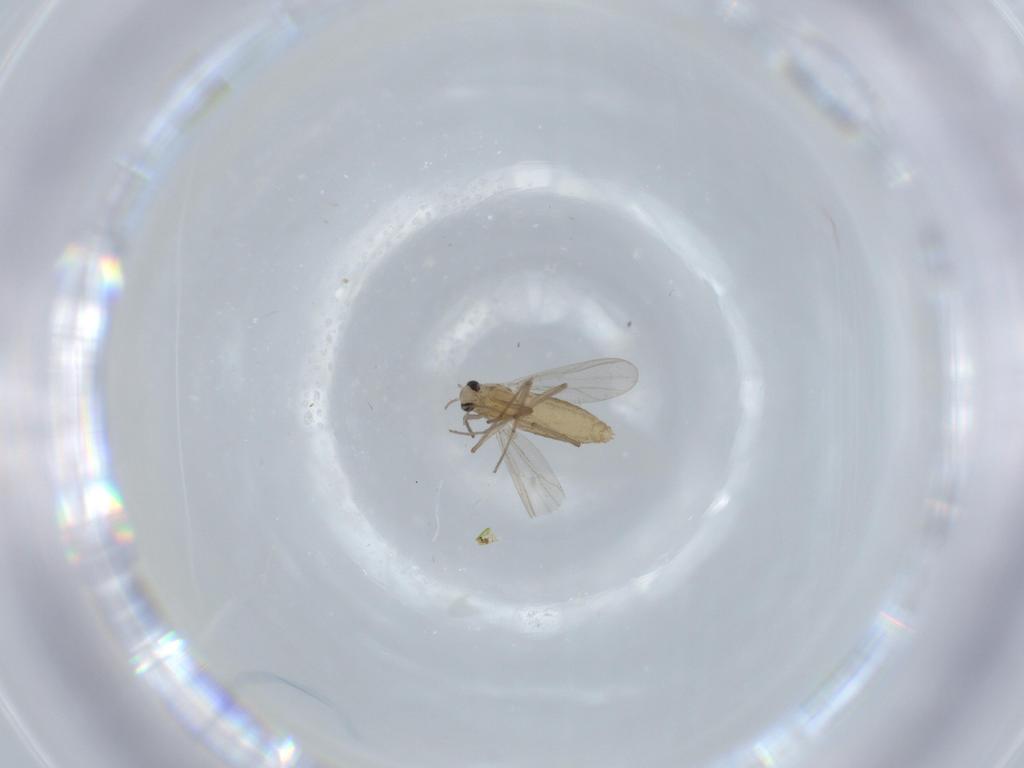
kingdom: Animalia
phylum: Arthropoda
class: Insecta
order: Diptera
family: Chironomidae
